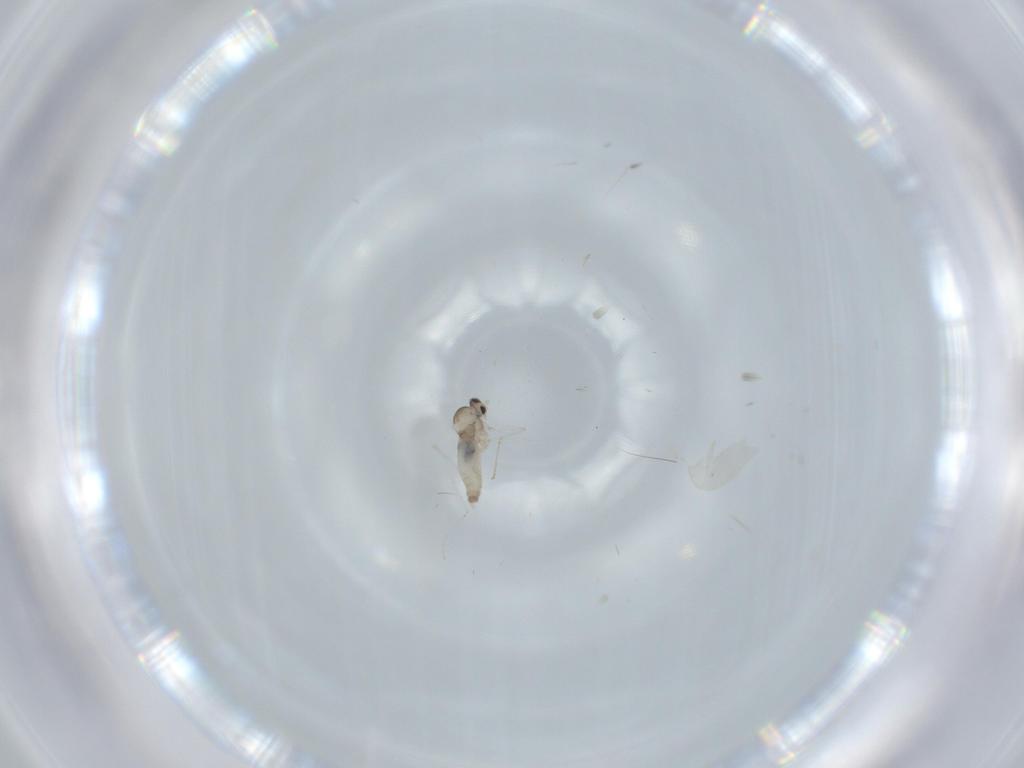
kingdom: Animalia
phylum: Arthropoda
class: Insecta
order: Diptera
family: Cecidomyiidae
